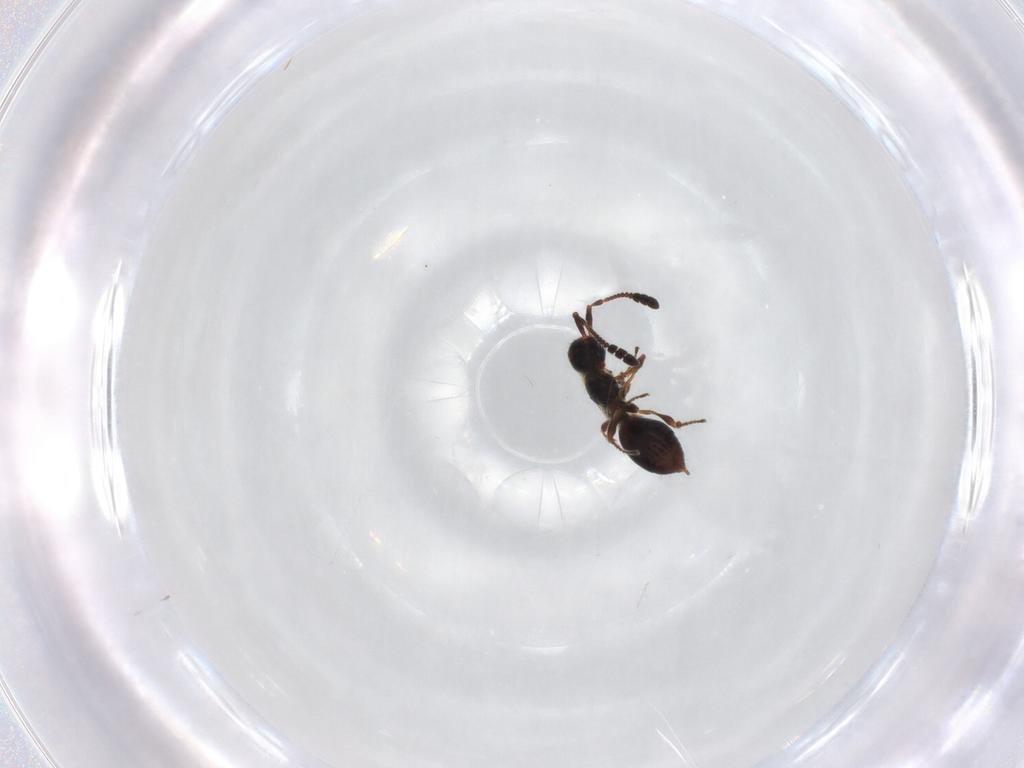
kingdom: Animalia
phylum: Arthropoda
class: Insecta
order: Hymenoptera
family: Diapriidae
